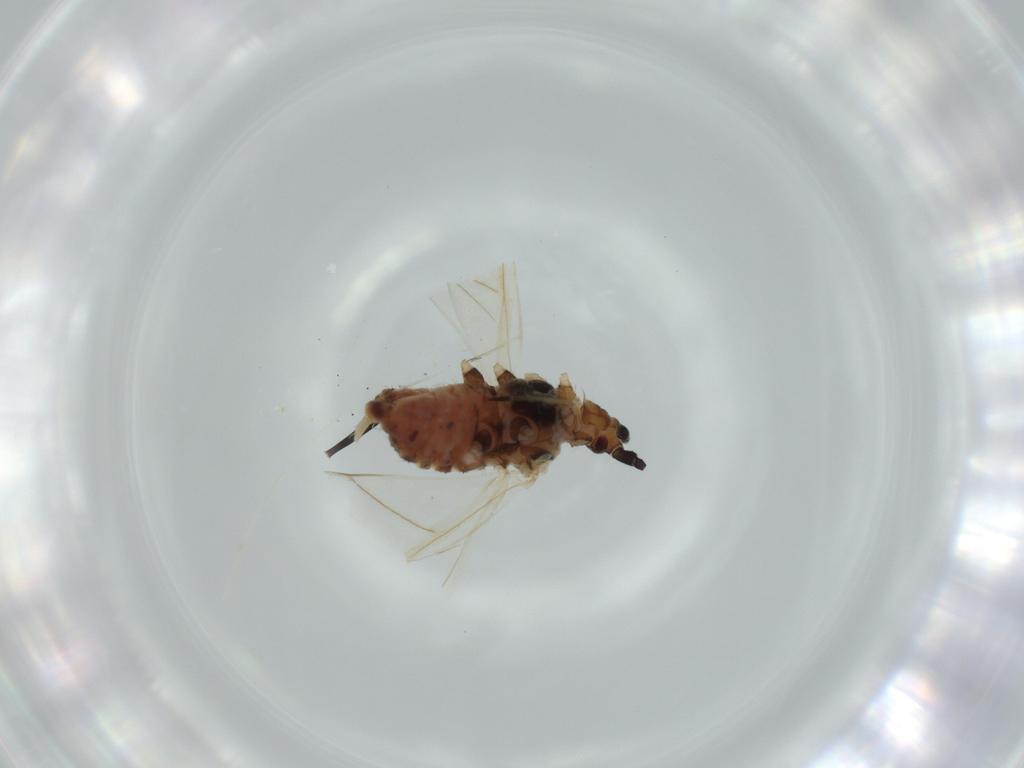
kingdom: Animalia
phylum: Arthropoda
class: Insecta
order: Hemiptera
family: Aphididae
